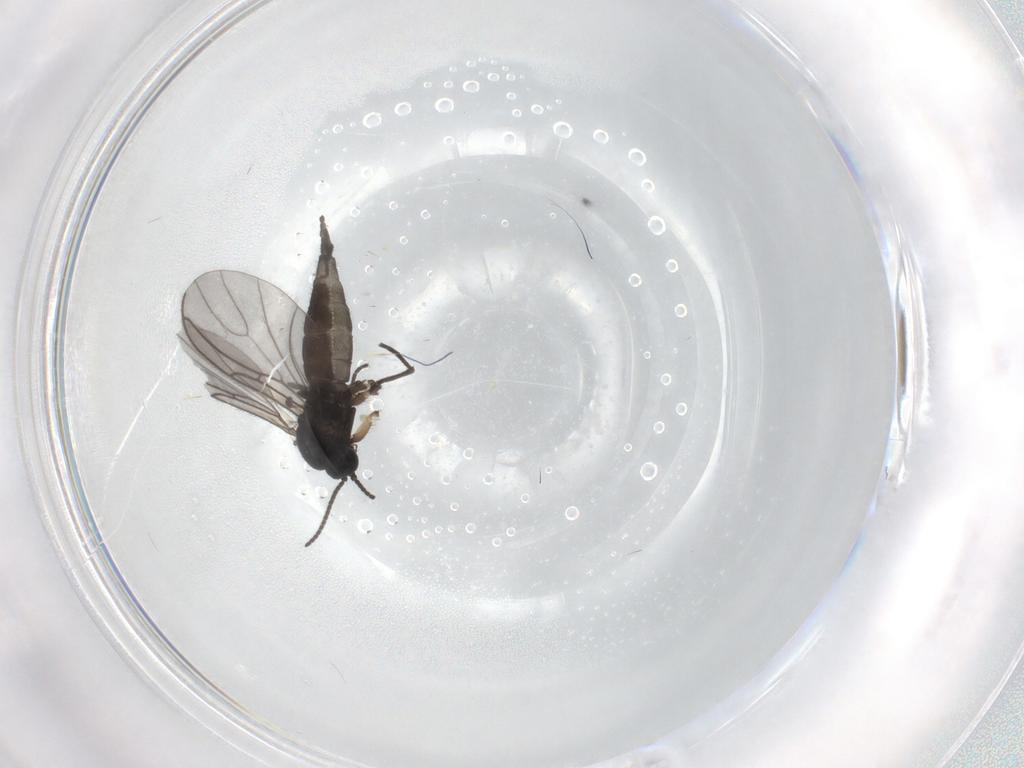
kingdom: Animalia
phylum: Arthropoda
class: Insecta
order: Diptera
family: Sciaridae
